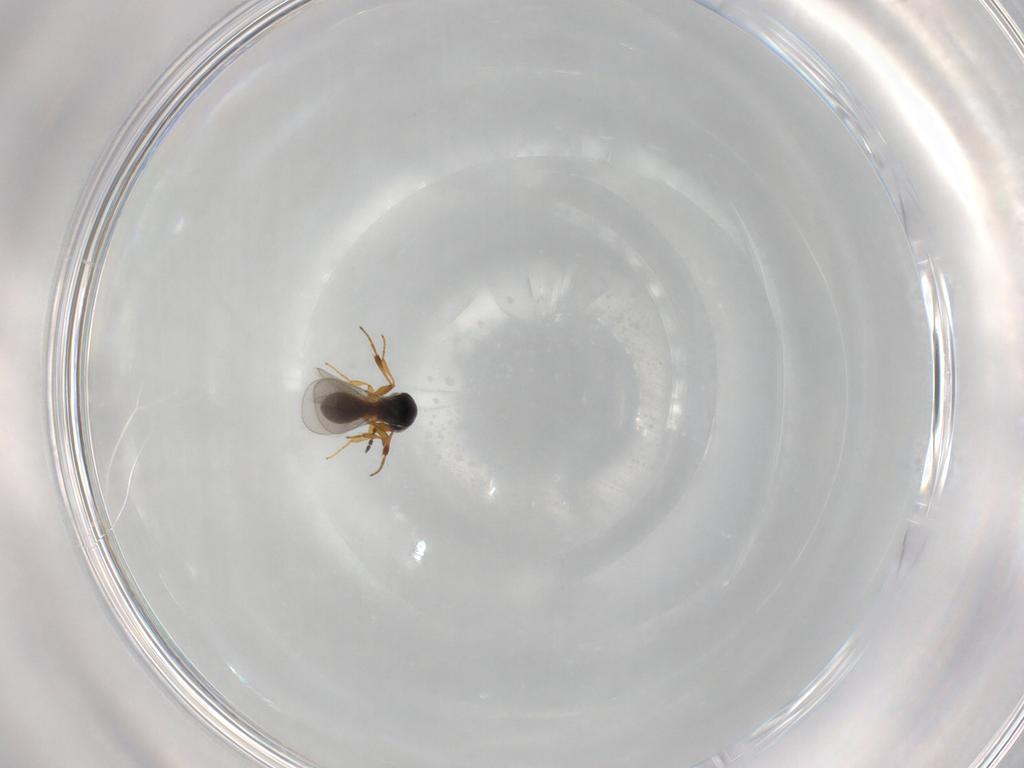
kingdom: Animalia
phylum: Arthropoda
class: Insecta
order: Hymenoptera
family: Platygastridae
